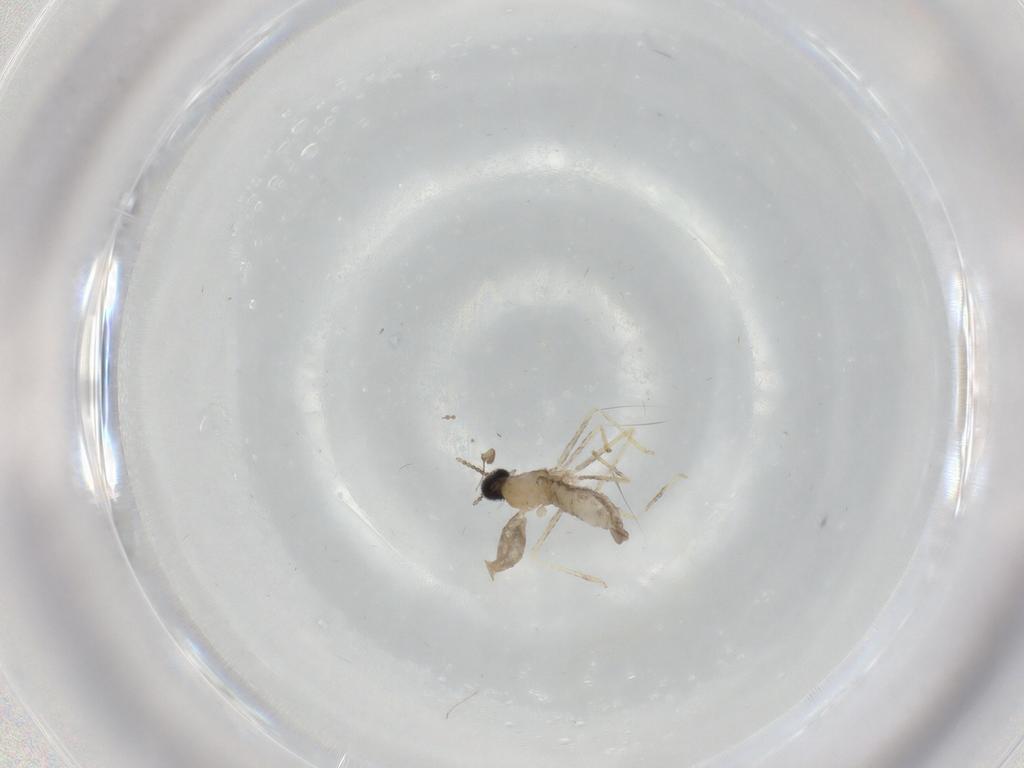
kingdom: Animalia
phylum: Arthropoda
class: Insecta
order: Diptera
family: Phoridae
